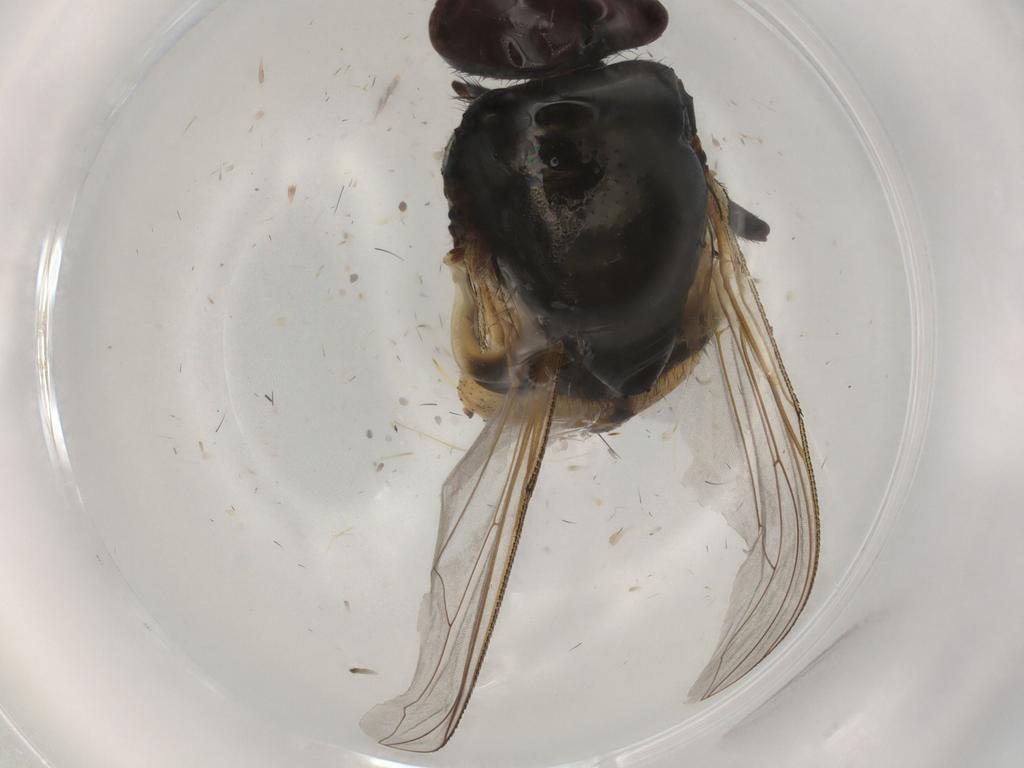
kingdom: Animalia
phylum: Arthropoda
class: Insecta
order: Diptera
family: Muscidae
